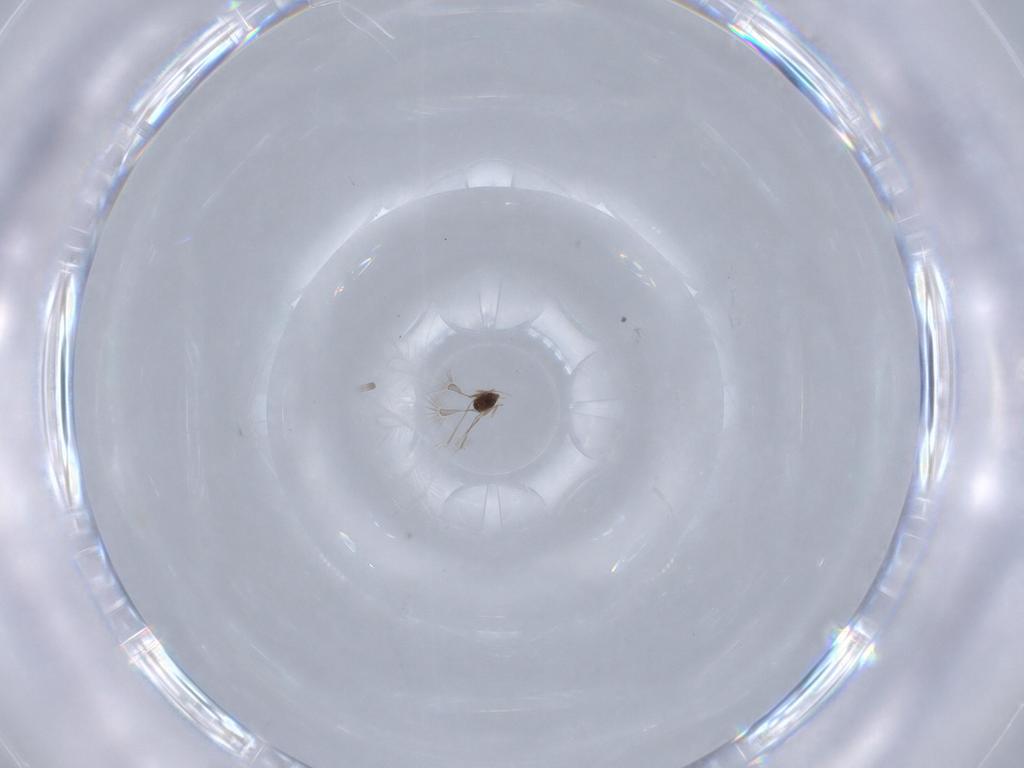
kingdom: Animalia
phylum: Arthropoda
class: Insecta
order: Hymenoptera
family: Mymaridae
